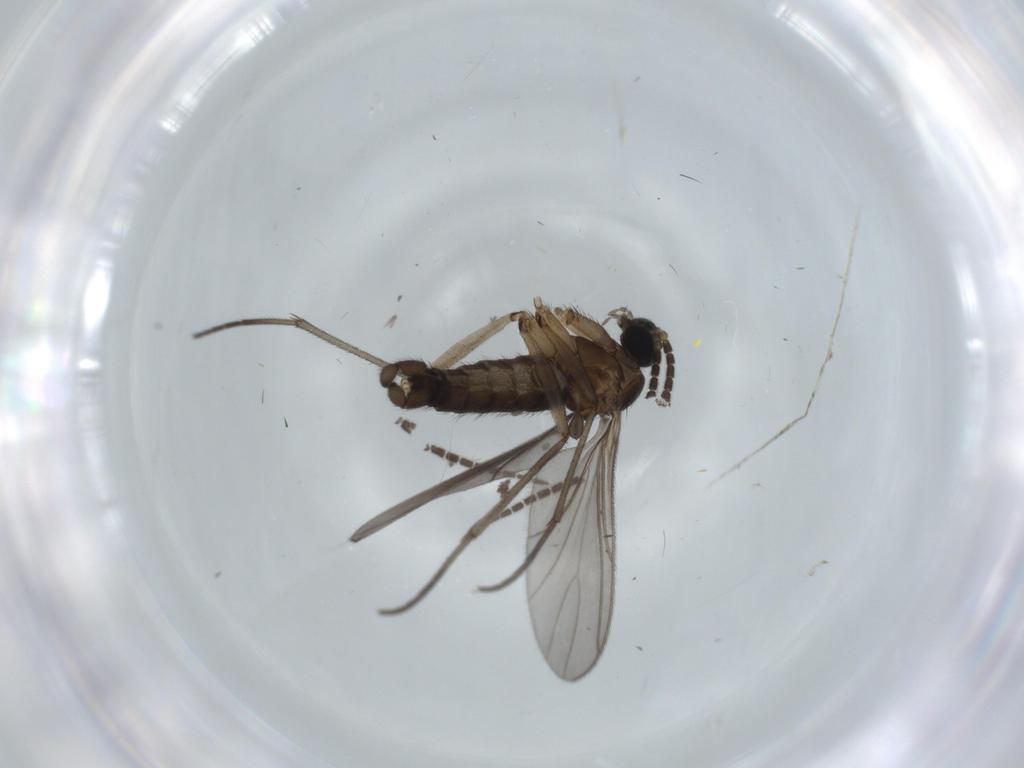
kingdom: Animalia
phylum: Arthropoda
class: Insecta
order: Diptera
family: Sciaridae
